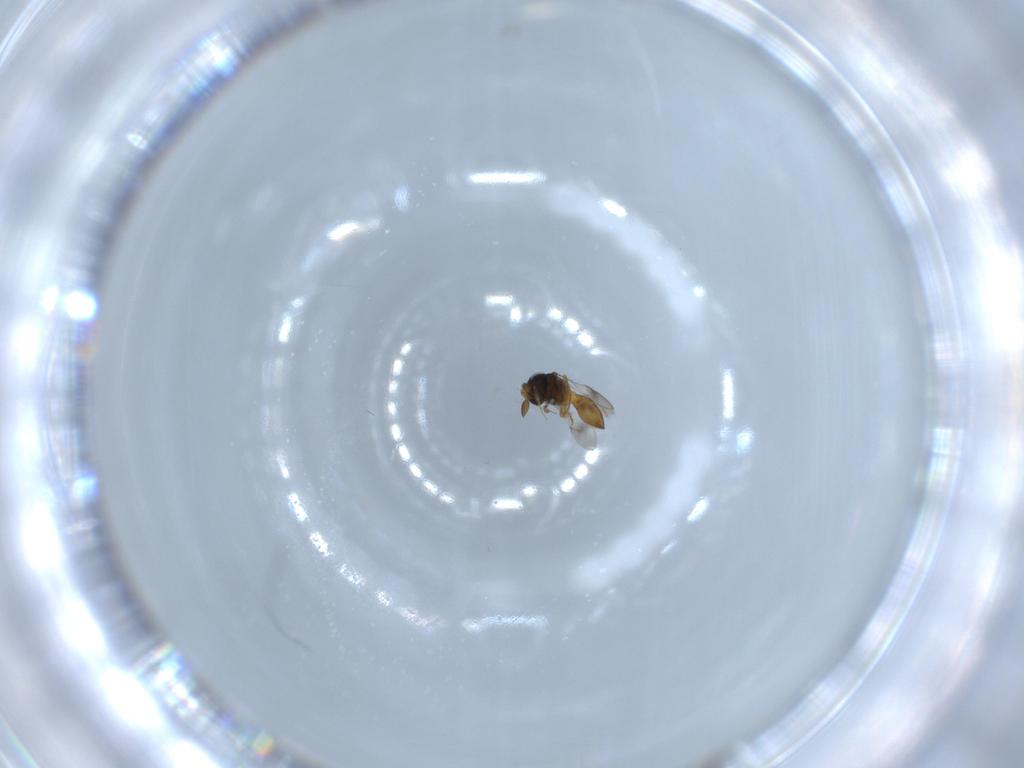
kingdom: Animalia
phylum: Arthropoda
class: Insecta
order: Hymenoptera
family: Scelionidae
